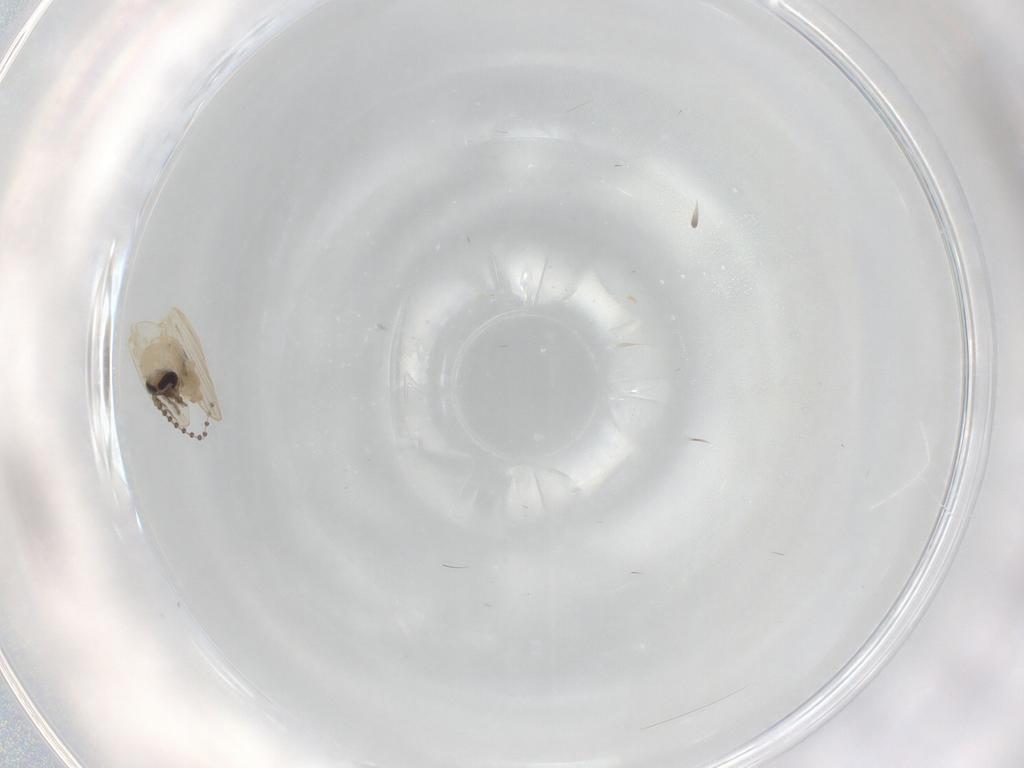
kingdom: Animalia
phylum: Arthropoda
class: Insecta
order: Diptera
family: Psychodidae
